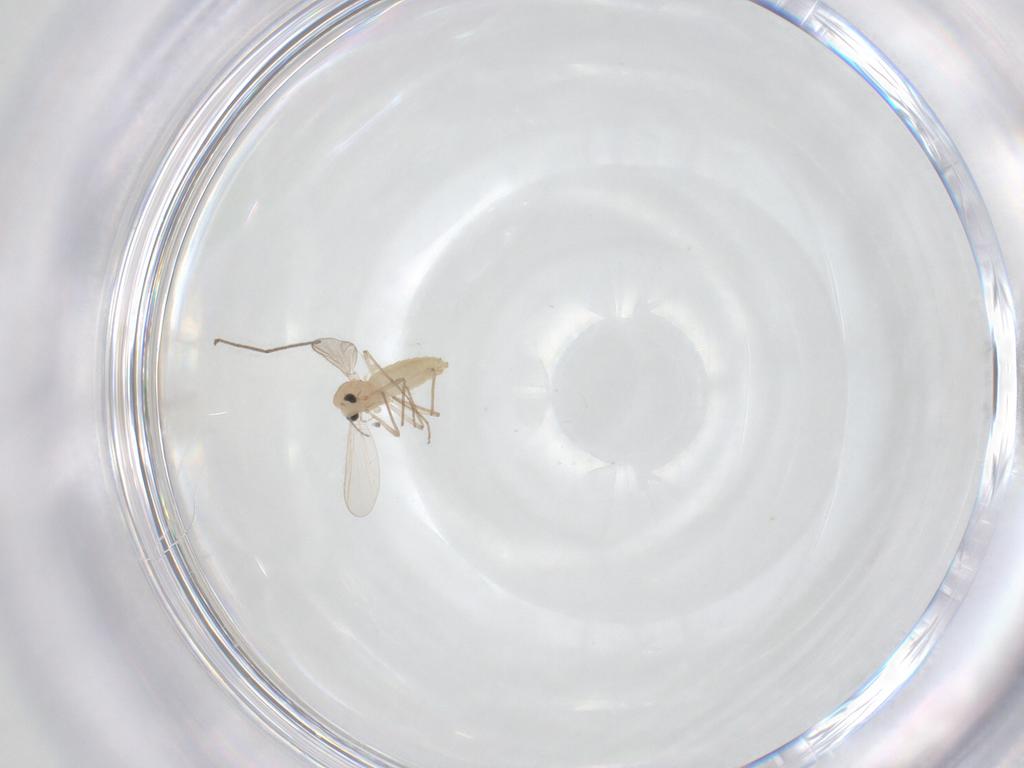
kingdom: Animalia
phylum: Arthropoda
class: Insecta
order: Diptera
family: Chironomidae
